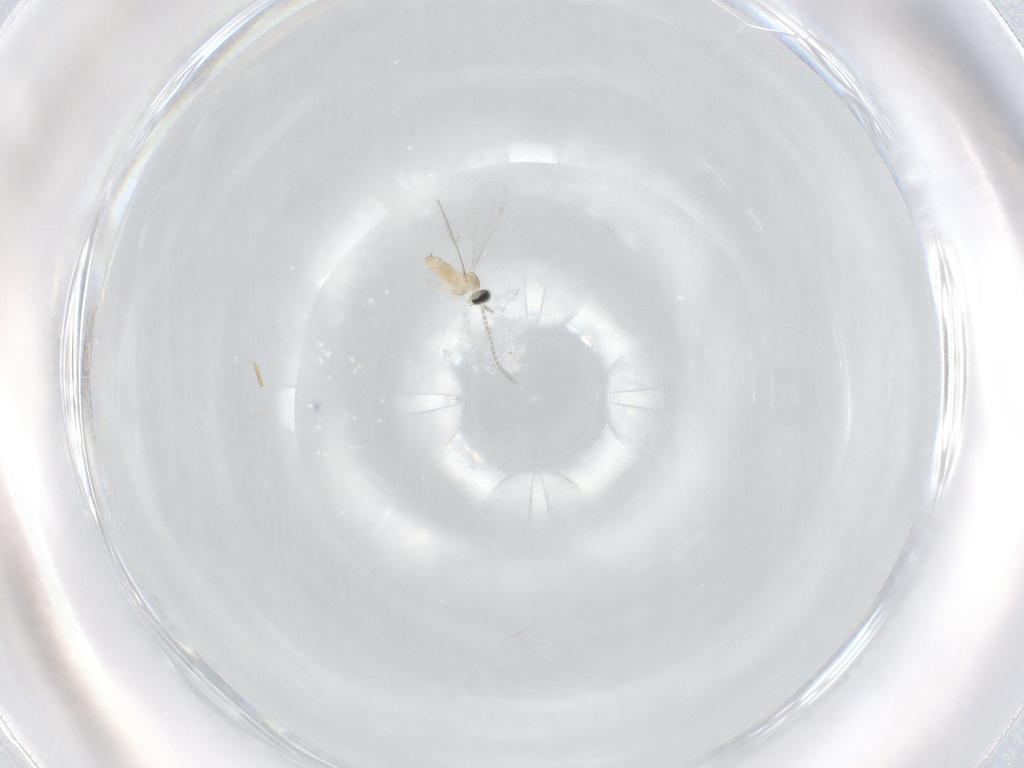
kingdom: Animalia
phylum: Arthropoda
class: Insecta
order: Diptera
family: Cecidomyiidae
